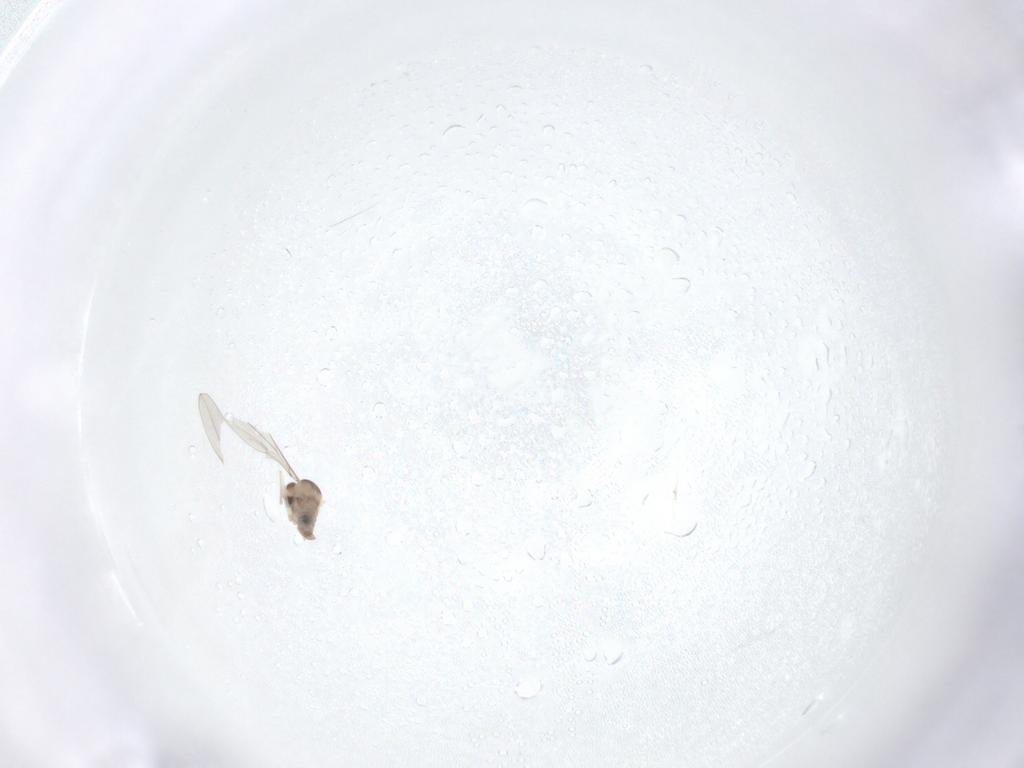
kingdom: Animalia
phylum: Arthropoda
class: Insecta
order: Diptera
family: Cecidomyiidae
